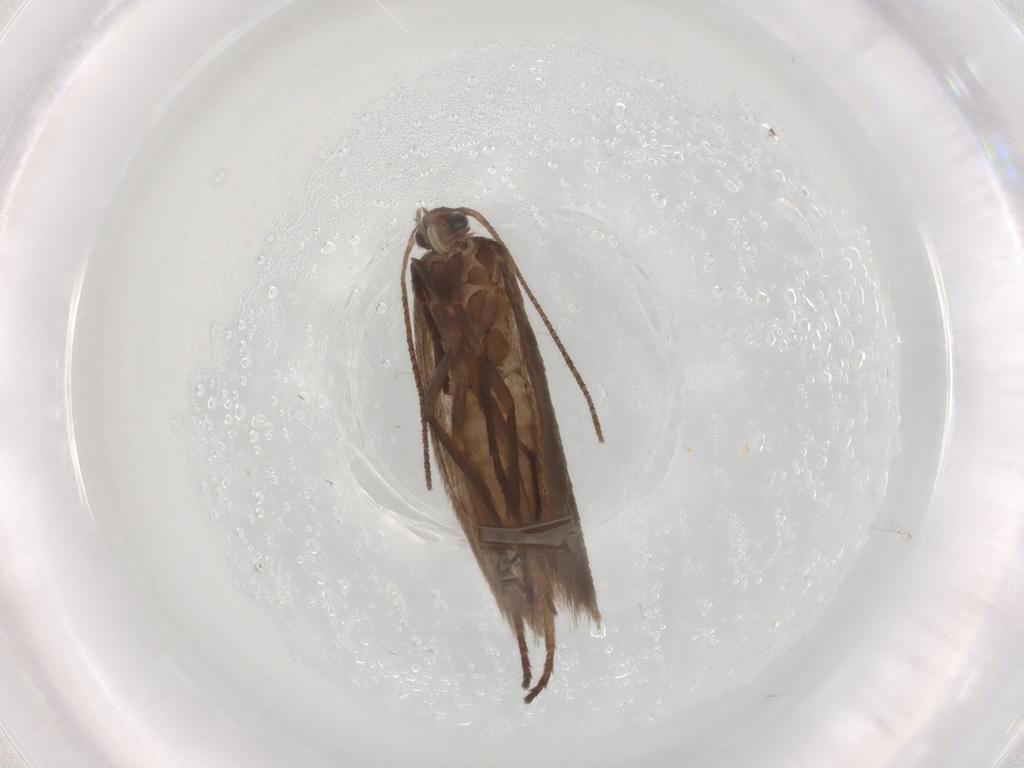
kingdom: Animalia
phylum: Arthropoda
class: Insecta
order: Lepidoptera
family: Limacodidae
